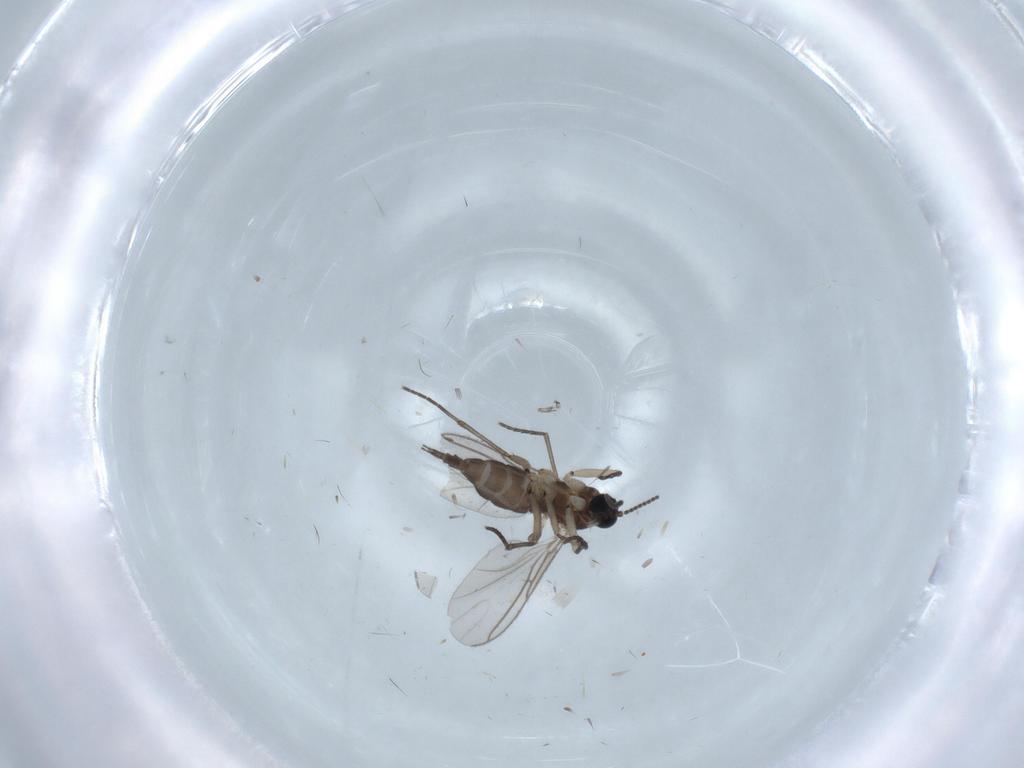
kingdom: Animalia
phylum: Arthropoda
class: Insecta
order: Diptera
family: Sciaridae
